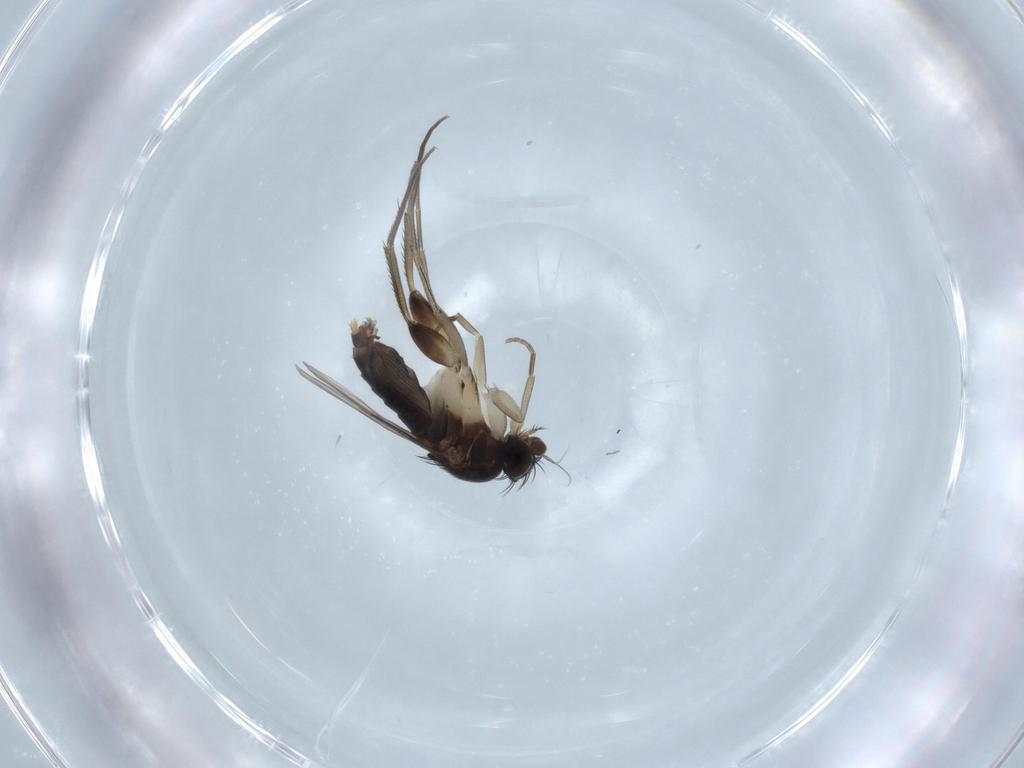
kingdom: Animalia
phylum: Arthropoda
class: Insecta
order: Diptera
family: Phoridae
